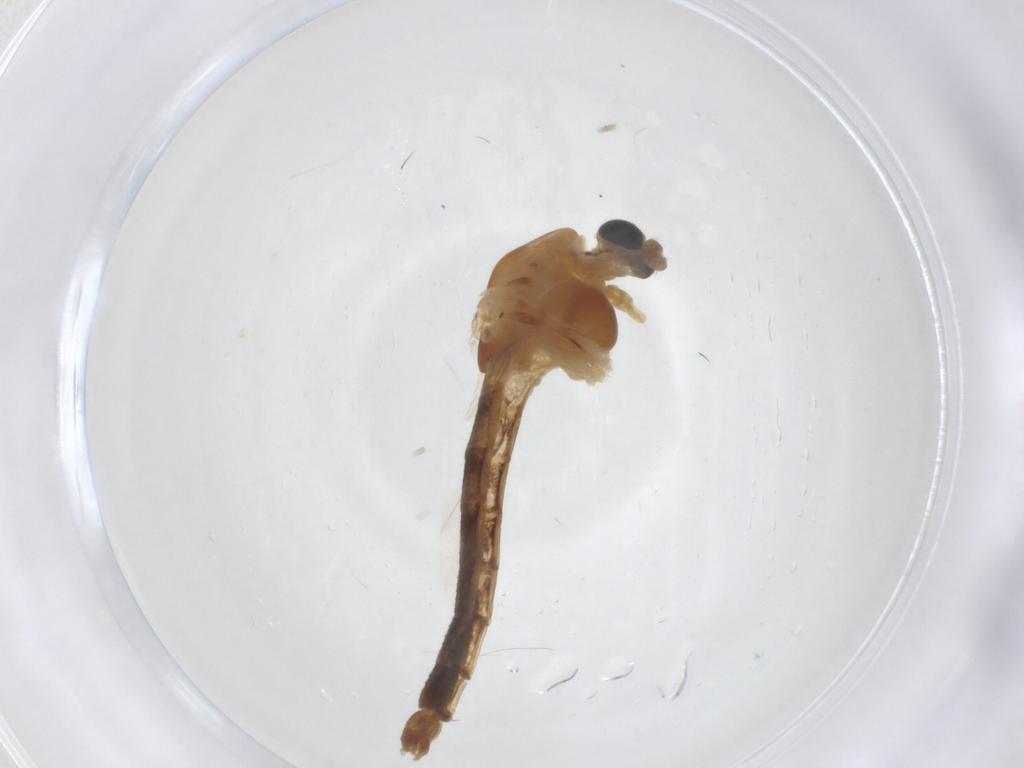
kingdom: Animalia
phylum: Arthropoda
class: Insecta
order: Diptera
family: Chironomidae
